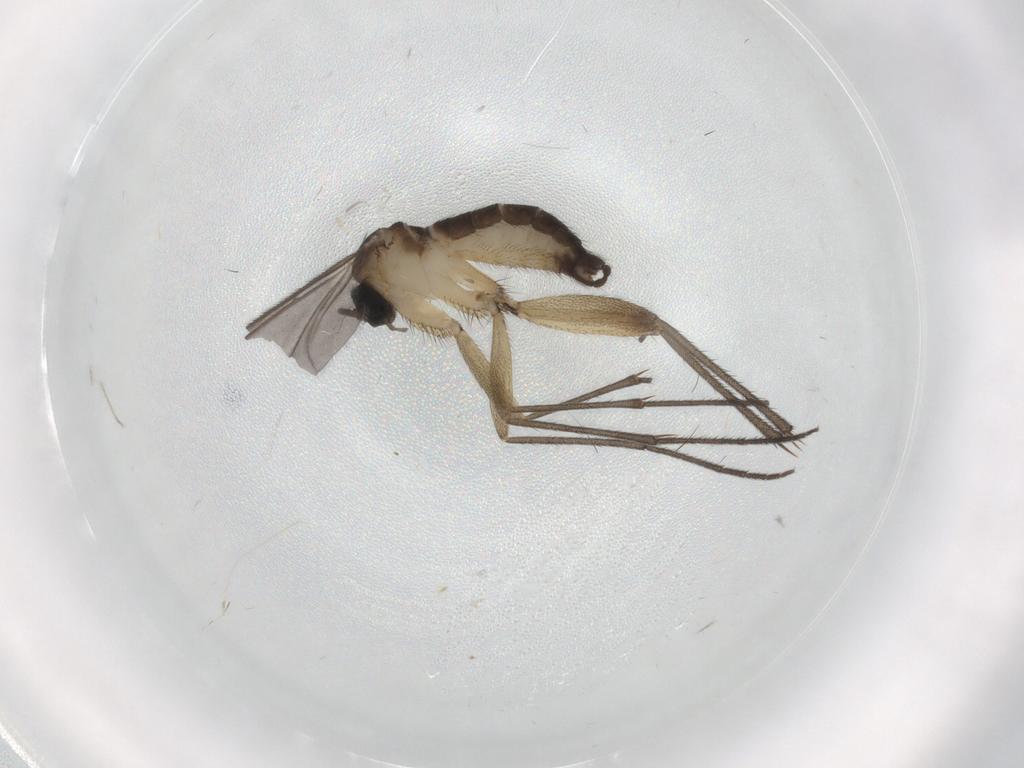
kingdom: Animalia
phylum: Arthropoda
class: Insecta
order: Diptera
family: Sciaridae
